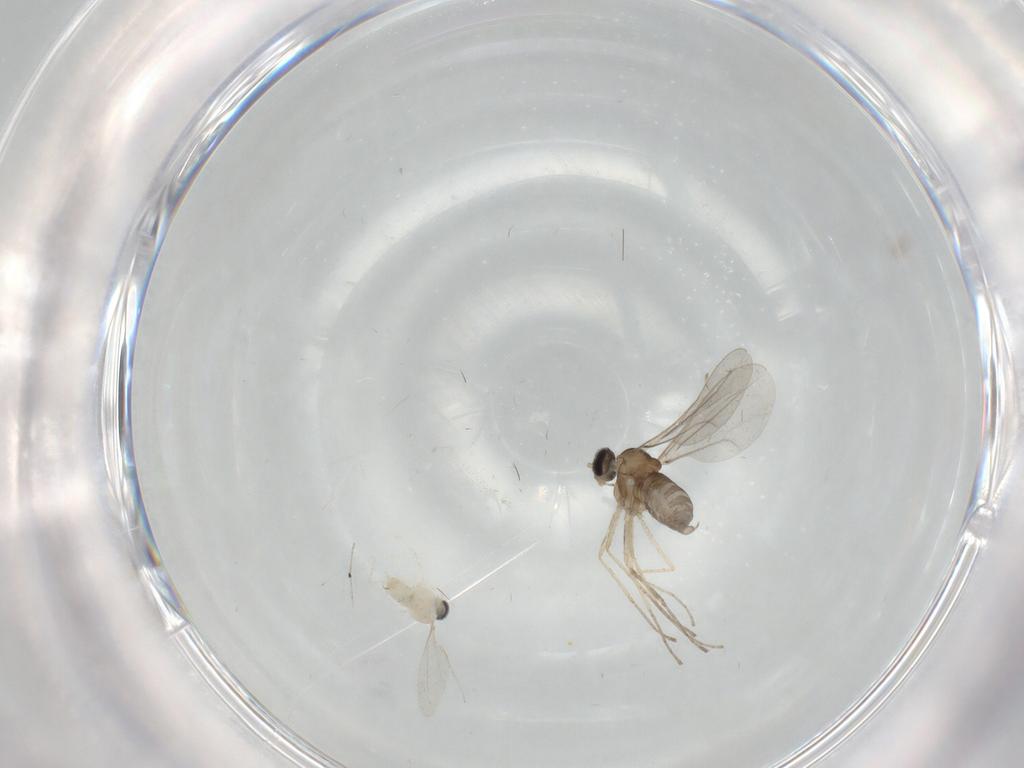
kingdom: Animalia
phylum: Arthropoda
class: Insecta
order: Diptera
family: Cecidomyiidae
